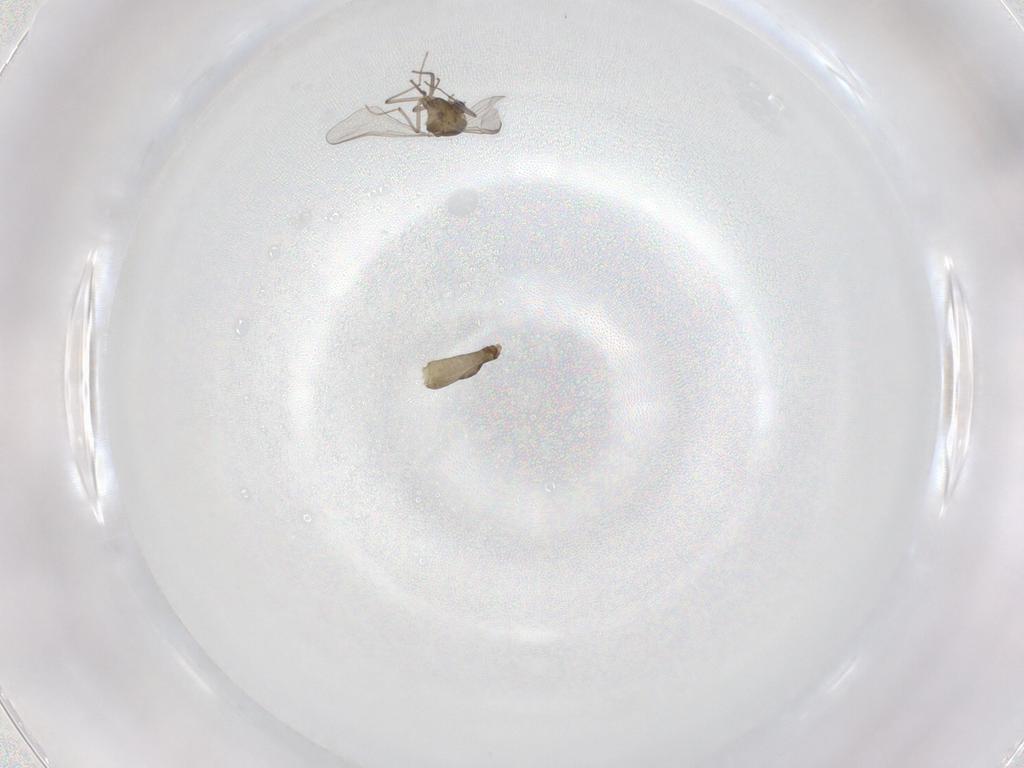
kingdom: Animalia
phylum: Arthropoda
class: Insecta
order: Diptera
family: Chironomidae
